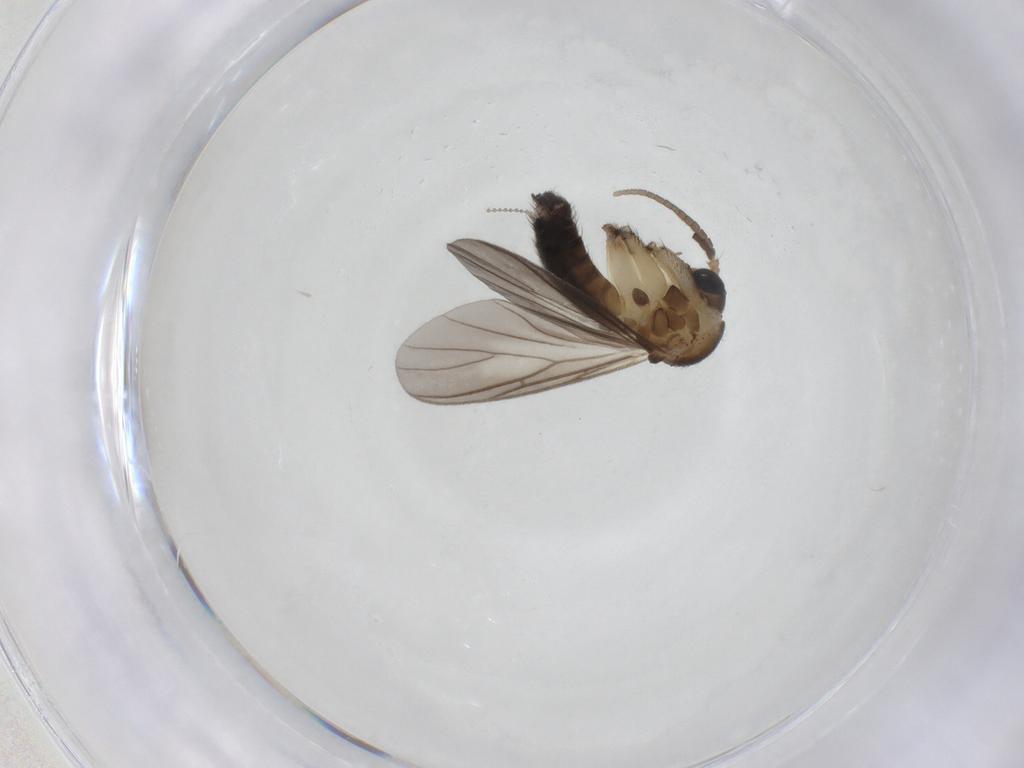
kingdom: Animalia
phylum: Arthropoda
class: Insecta
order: Diptera
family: Mycetophilidae
